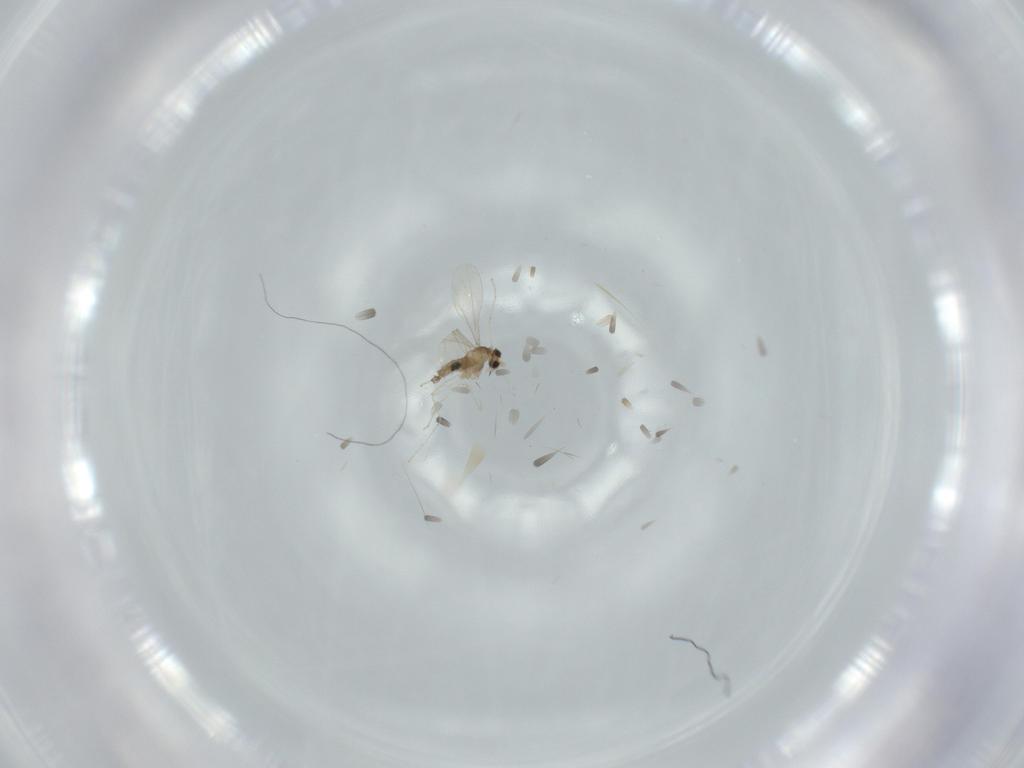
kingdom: Animalia
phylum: Arthropoda
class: Insecta
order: Diptera
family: Cecidomyiidae
